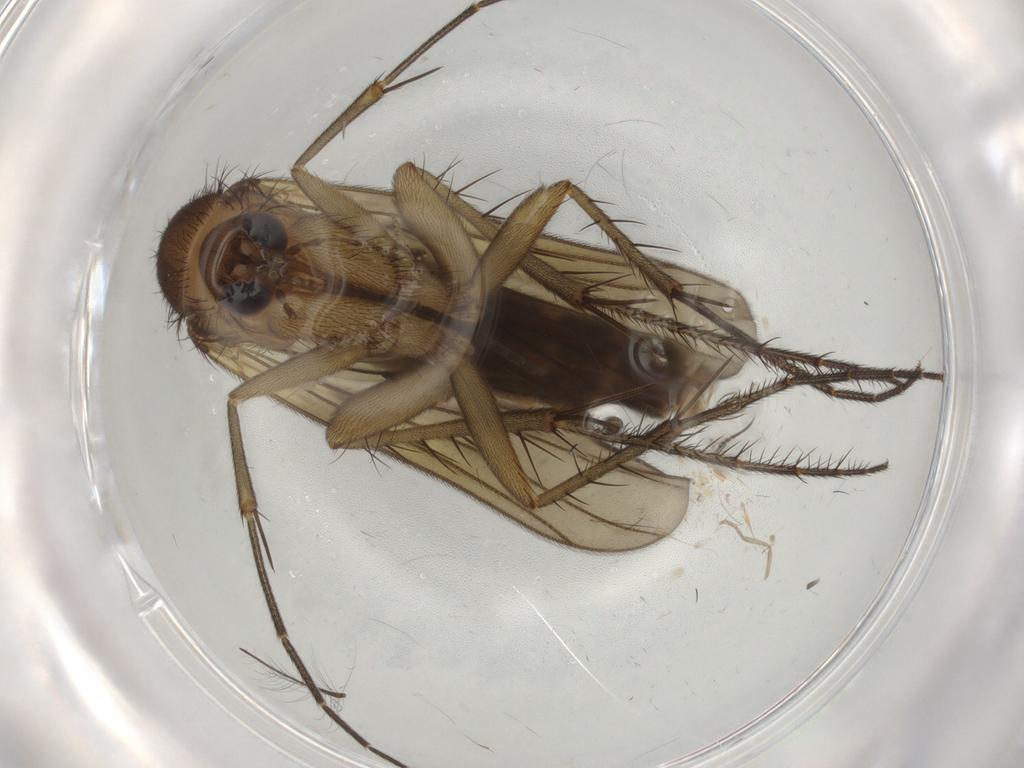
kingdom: Animalia
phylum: Arthropoda
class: Insecta
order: Diptera
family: Mycetophilidae
